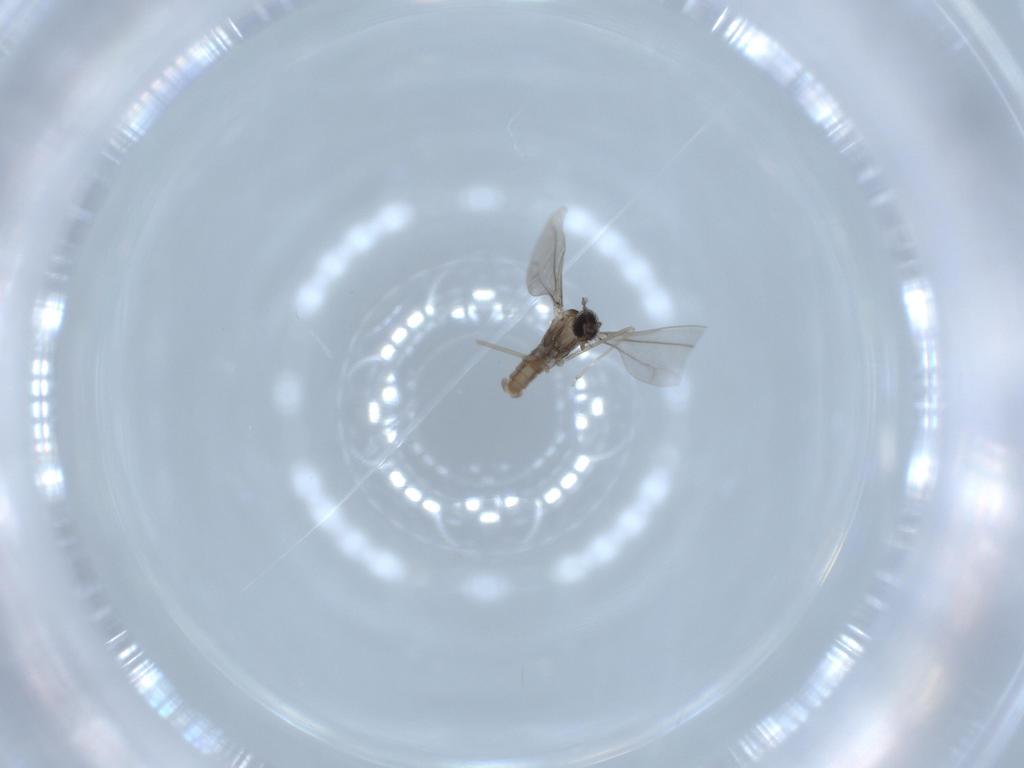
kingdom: Animalia
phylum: Arthropoda
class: Insecta
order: Diptera
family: Cecidomyiidae
